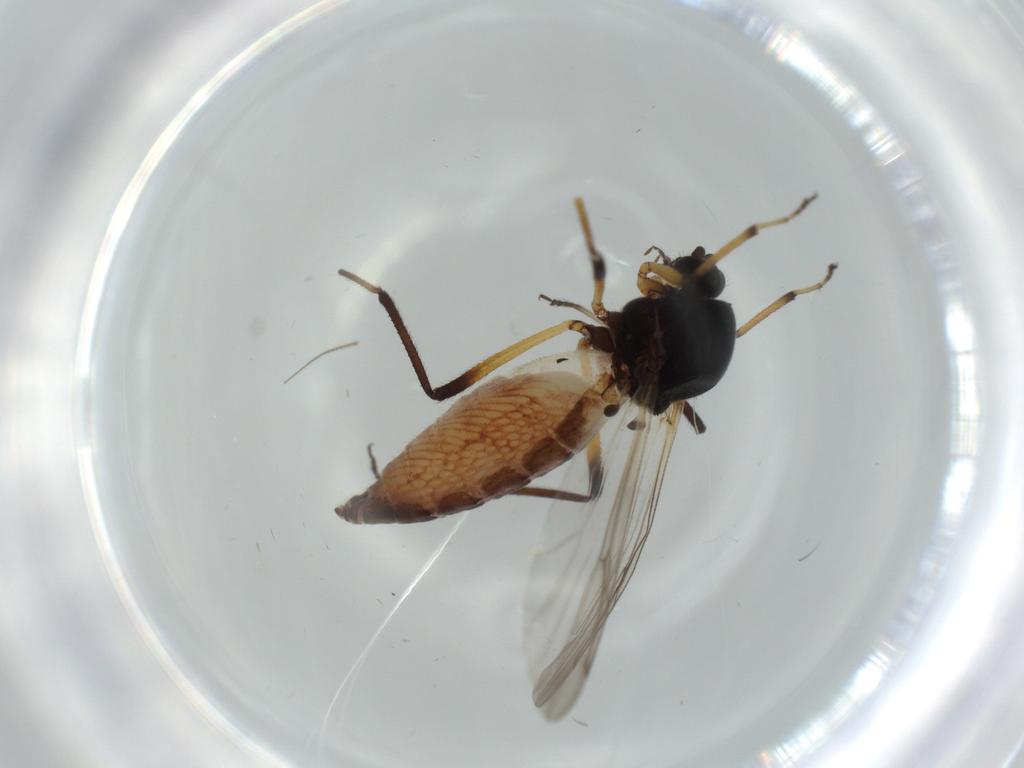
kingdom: Animalia
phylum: Arthropoda
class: Insecta
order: Diptera
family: Ceratopogonidae
